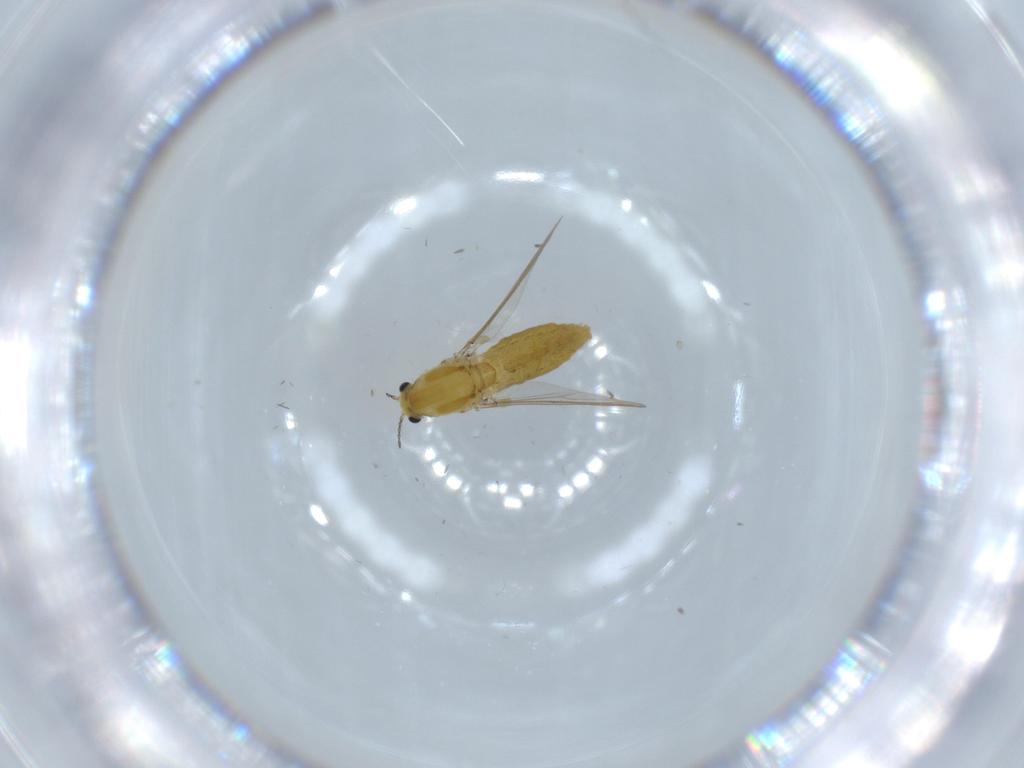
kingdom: Animalia
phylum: Arthropoda
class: Insecta
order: Diptera
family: Chironomidae
